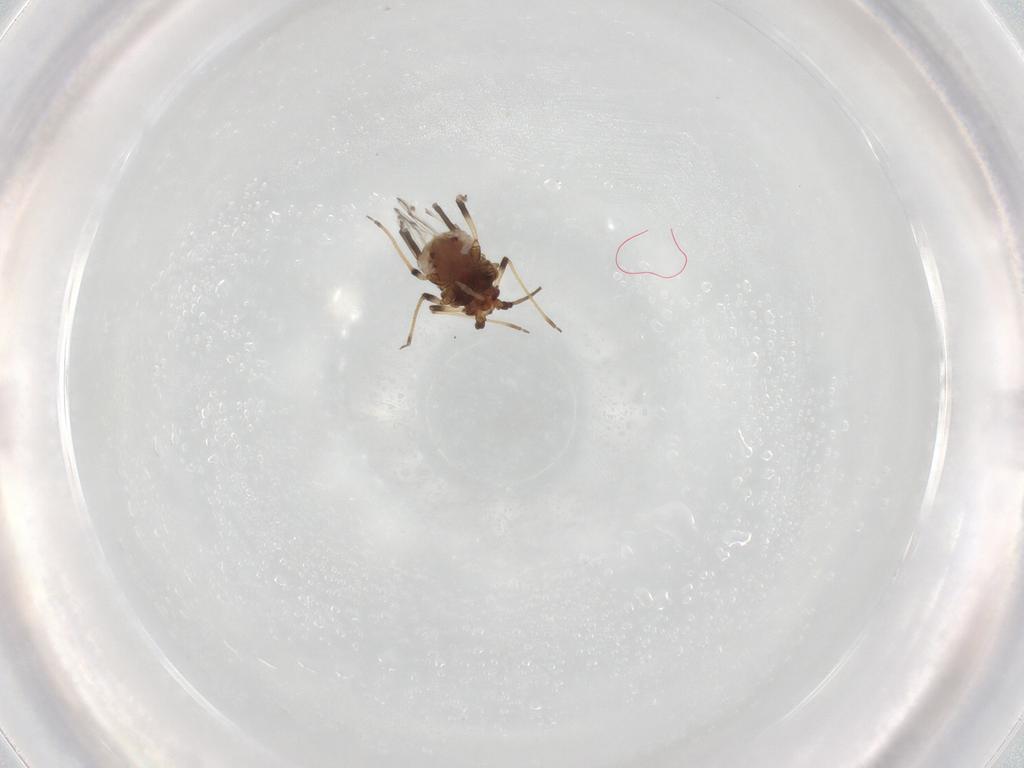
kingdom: Animalia
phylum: Arthropoda
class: Insecta
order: Hemiptera
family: Aphididae
